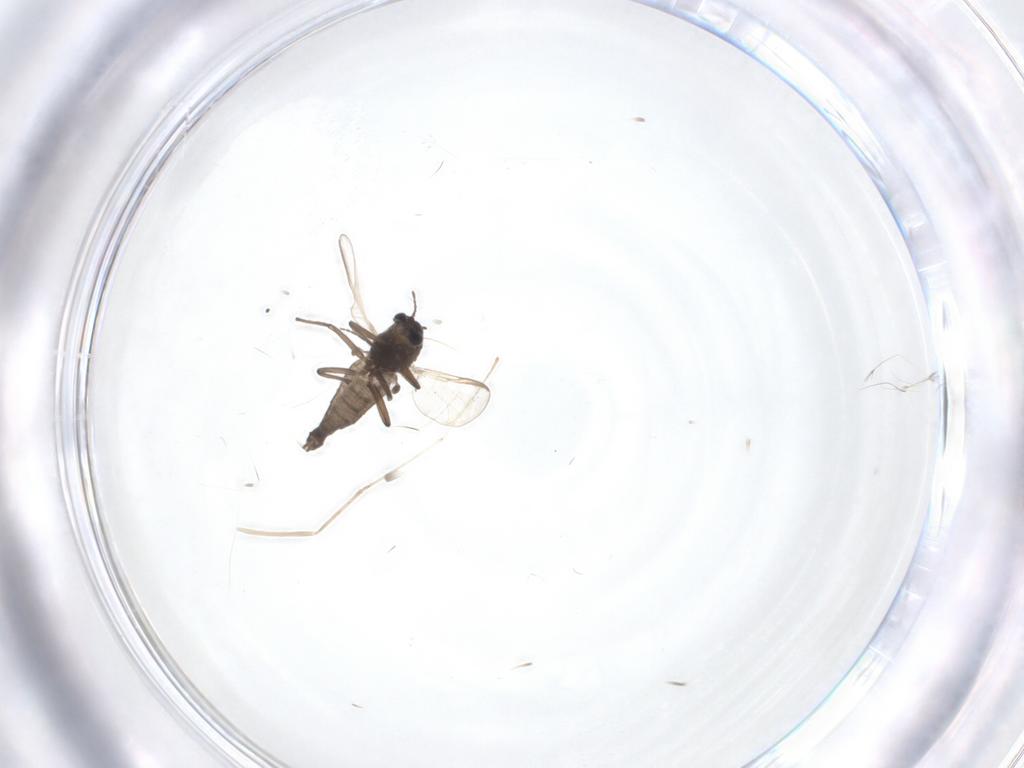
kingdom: Animalia
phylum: Arthropoda
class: Insecta
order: Diptera
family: Chironomidae
